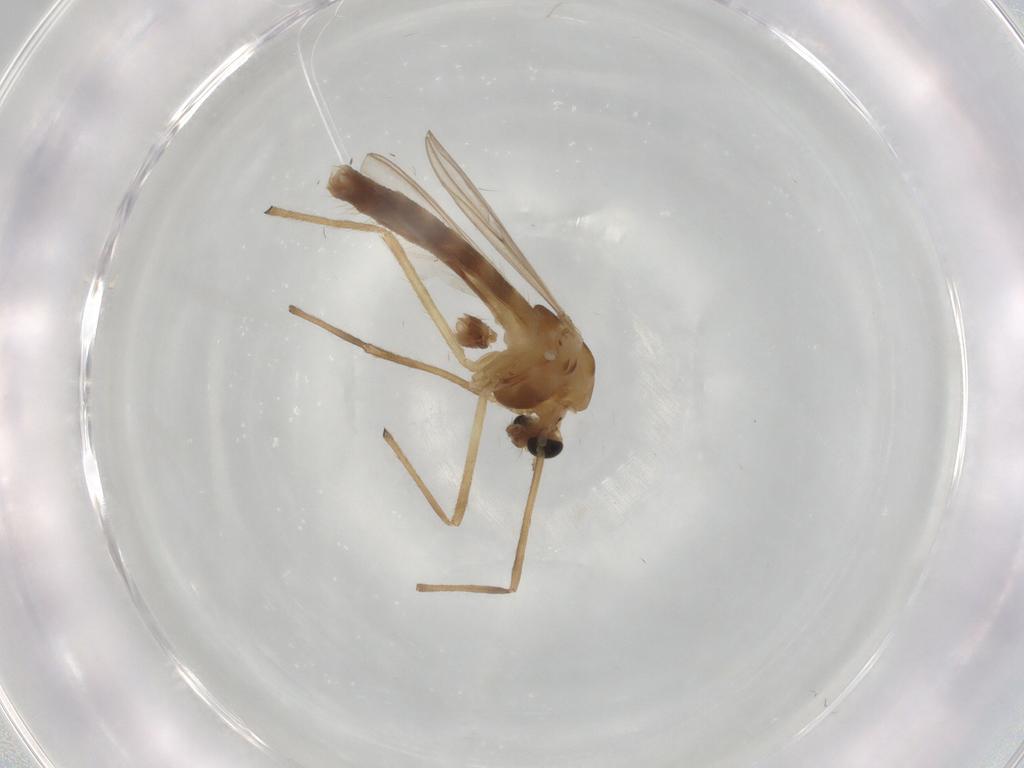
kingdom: Animalia
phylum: Arthropoda
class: Insecta
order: Diptera
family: Chironomidae
